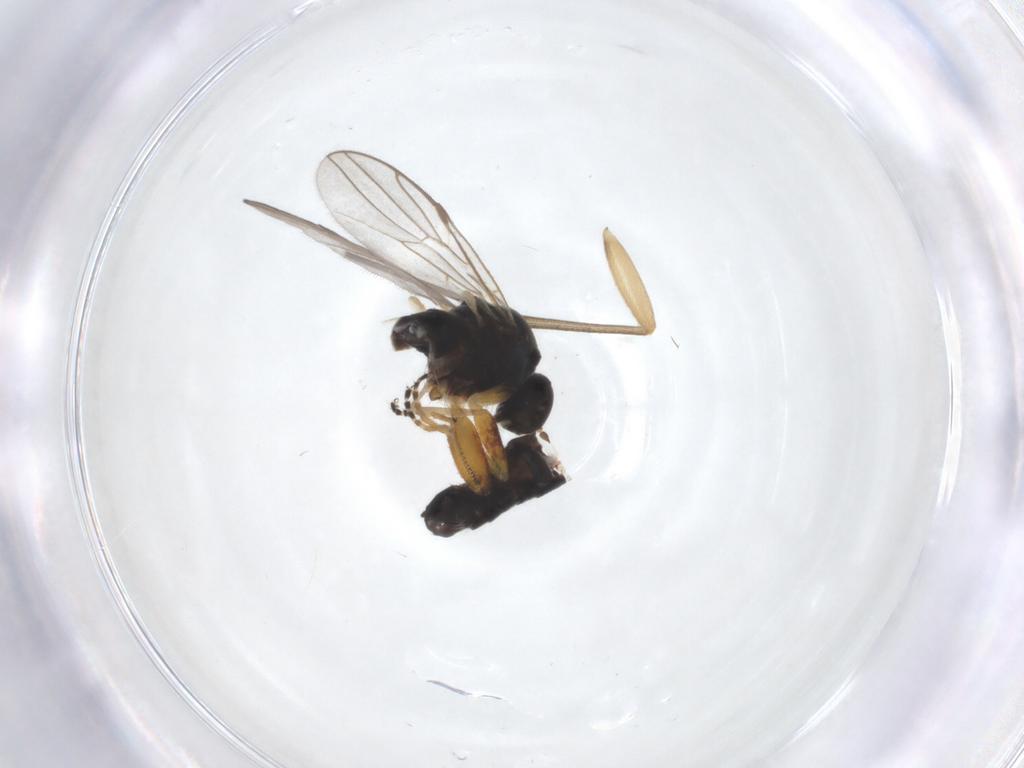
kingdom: Animalia
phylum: Arthropoda
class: Insecta
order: Diptera
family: Hybotidae
